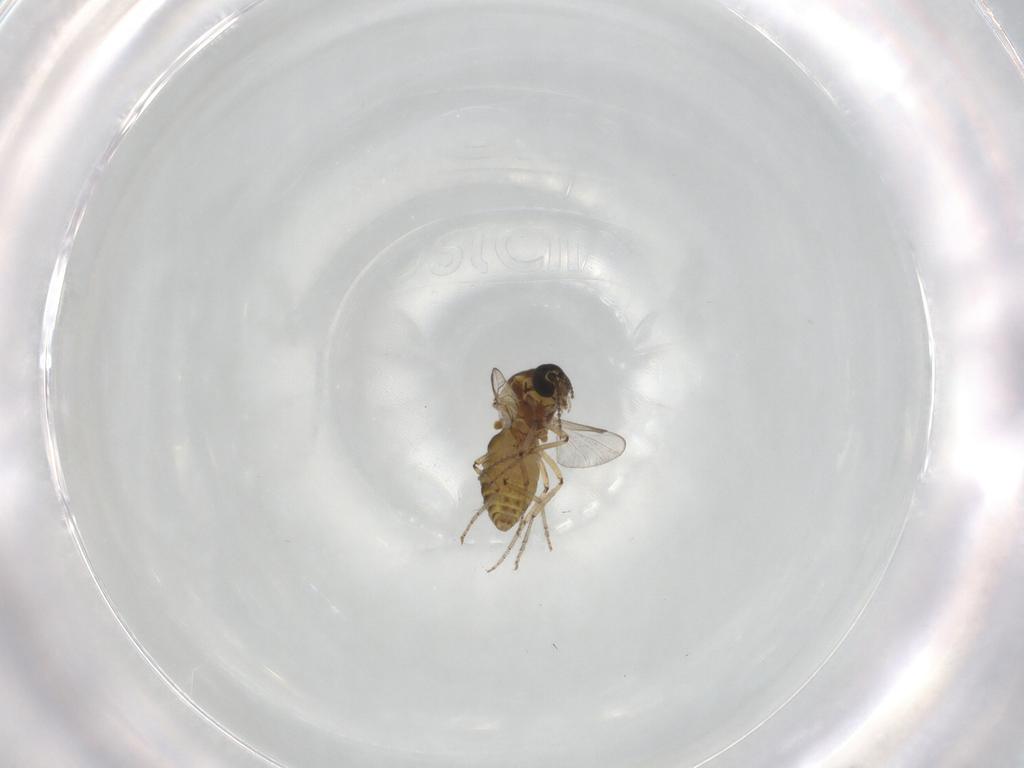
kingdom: Animalia
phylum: Arthropoda
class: Insecta
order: Diptera
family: Ceratopogonidae
